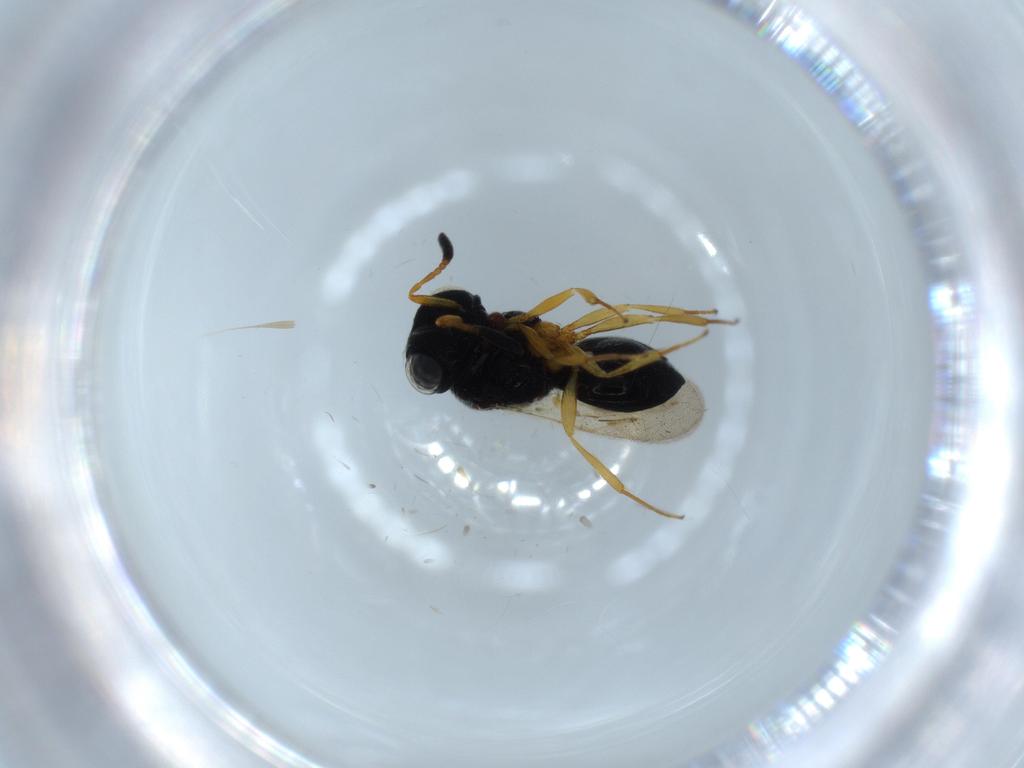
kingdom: Animalia
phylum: Arthropoda
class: Insecta
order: Hymenoptera
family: Scelionidae
